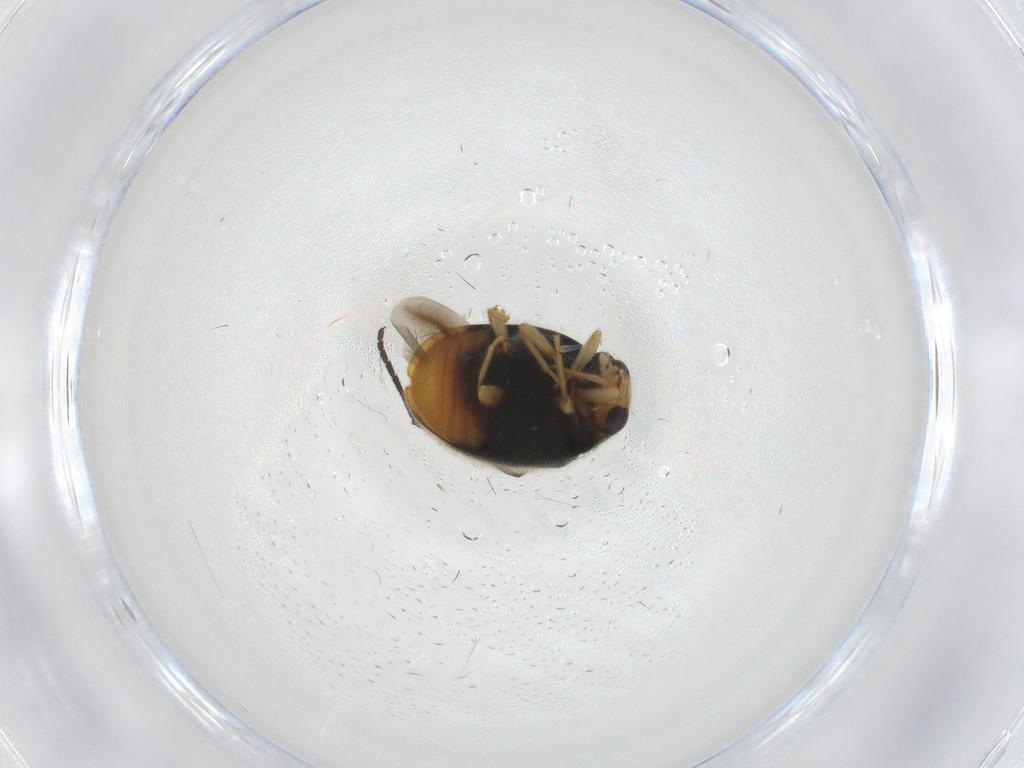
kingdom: Animalia
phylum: Arthropoda
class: Insecta
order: Coleoptera
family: Coccinellidae
